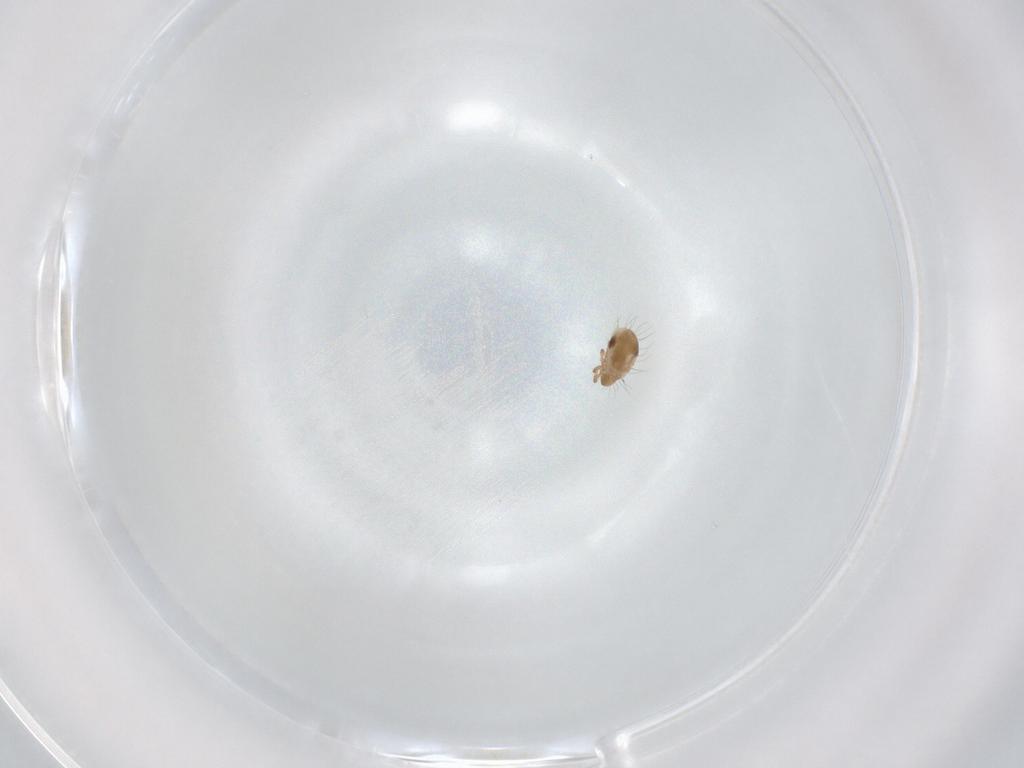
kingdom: Animalia
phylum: Arthropoda
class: Arachnida
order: Sarcoptiformes
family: Humerobatidae
